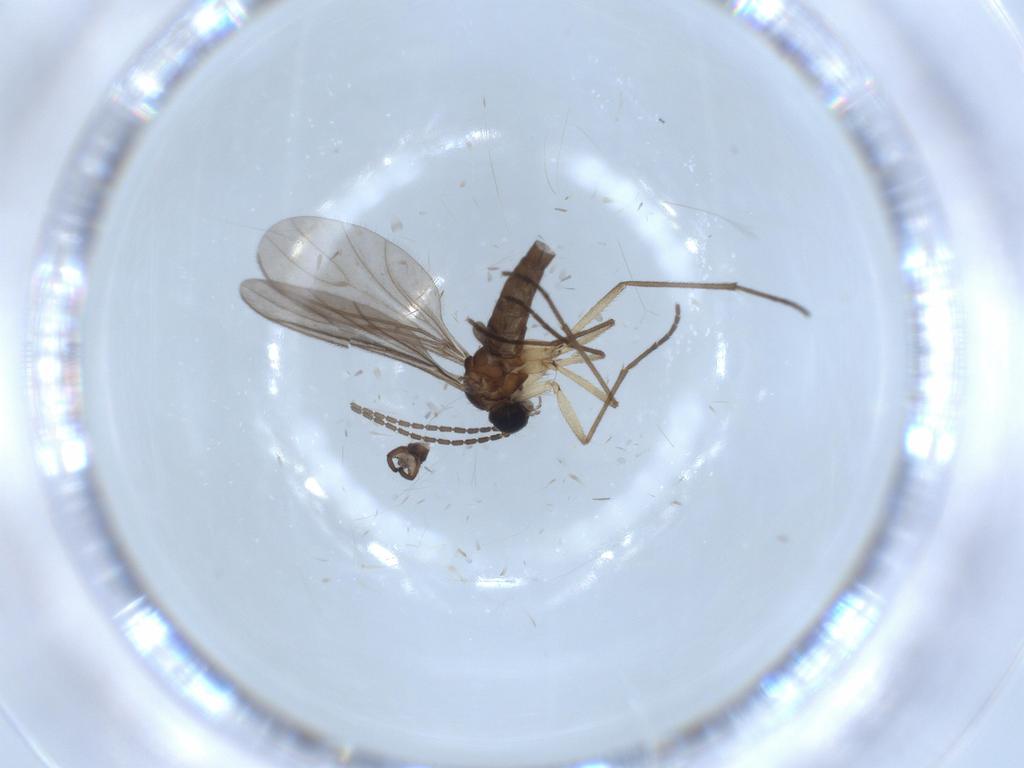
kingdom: Animalia
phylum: Arthropoda
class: Insecta
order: Diptera
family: Sciaridae
